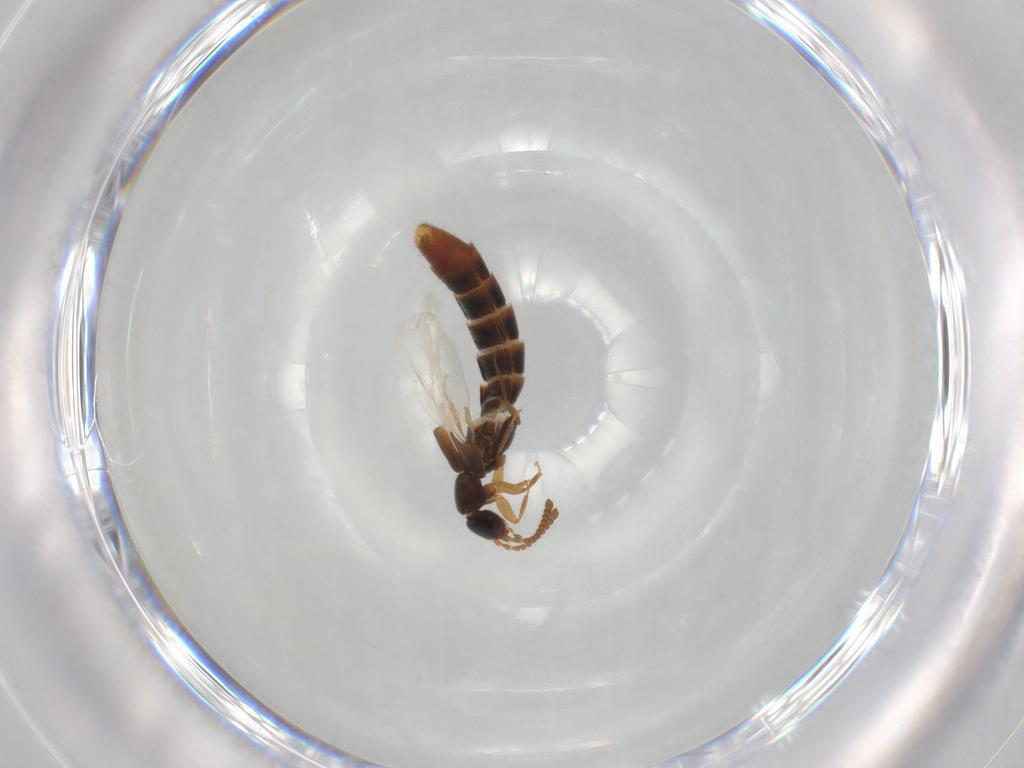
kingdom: Animalia
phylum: Arthropoda
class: Insecta
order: Coleoptera
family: Staphylinidae
